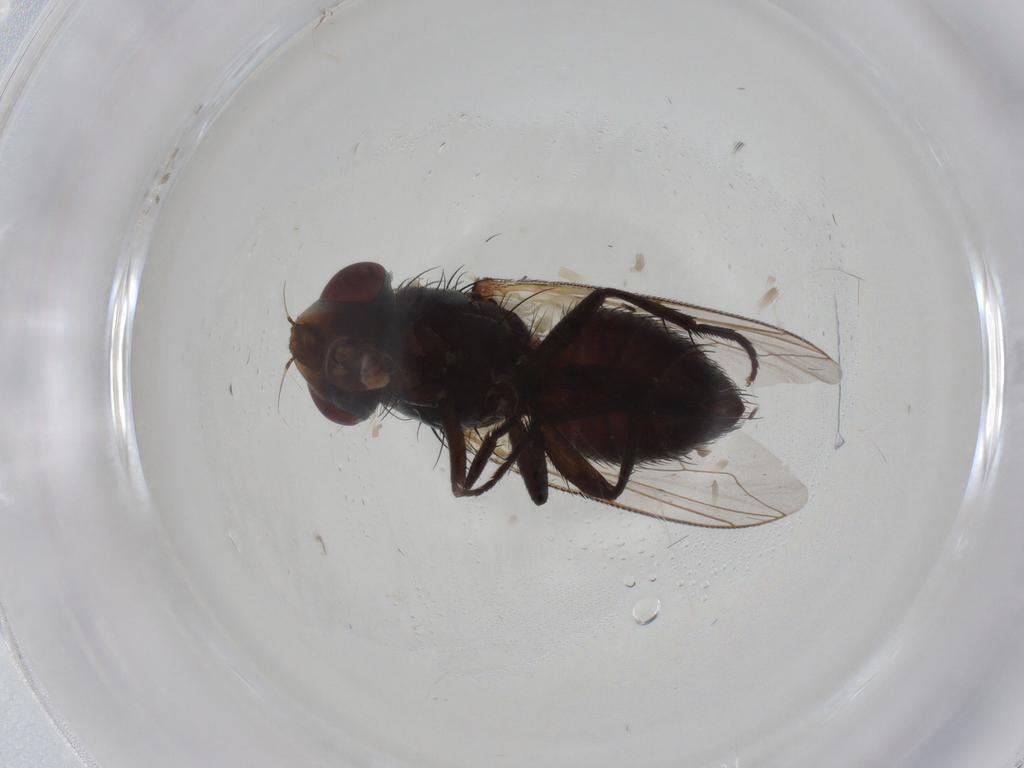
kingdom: Animalia
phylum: Arthropoda
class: Insecta
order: Diptera
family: Sarcophagidae
